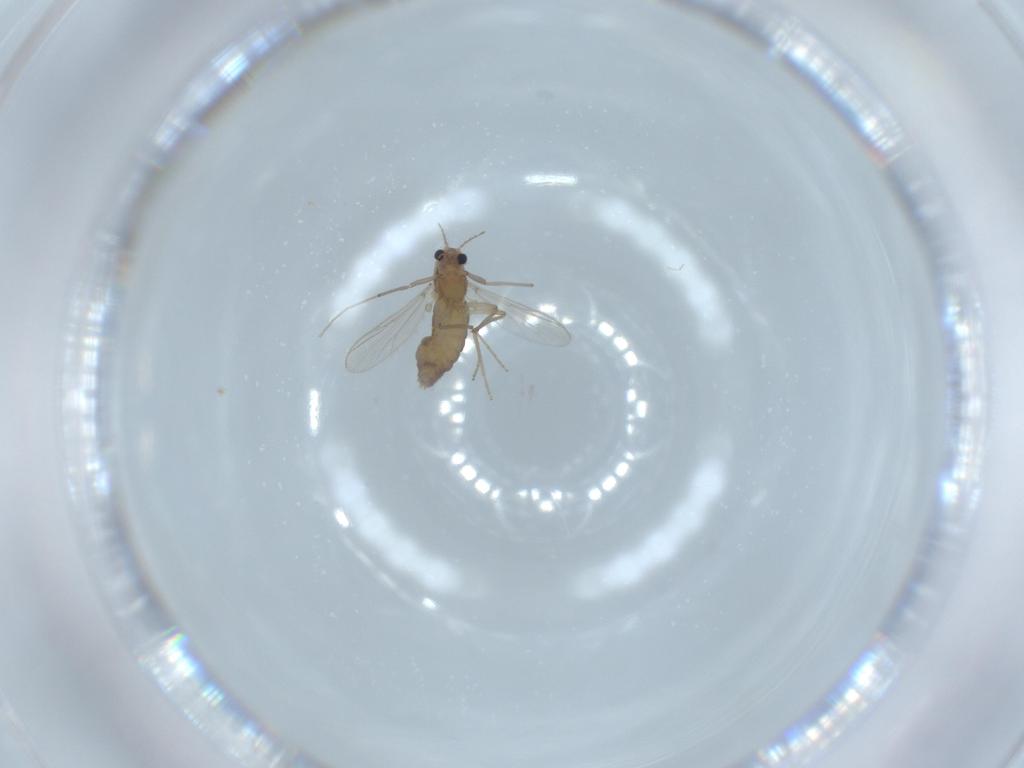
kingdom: Animalia
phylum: Arthropoda
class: Insecta
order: Diptera
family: Chironomidae
